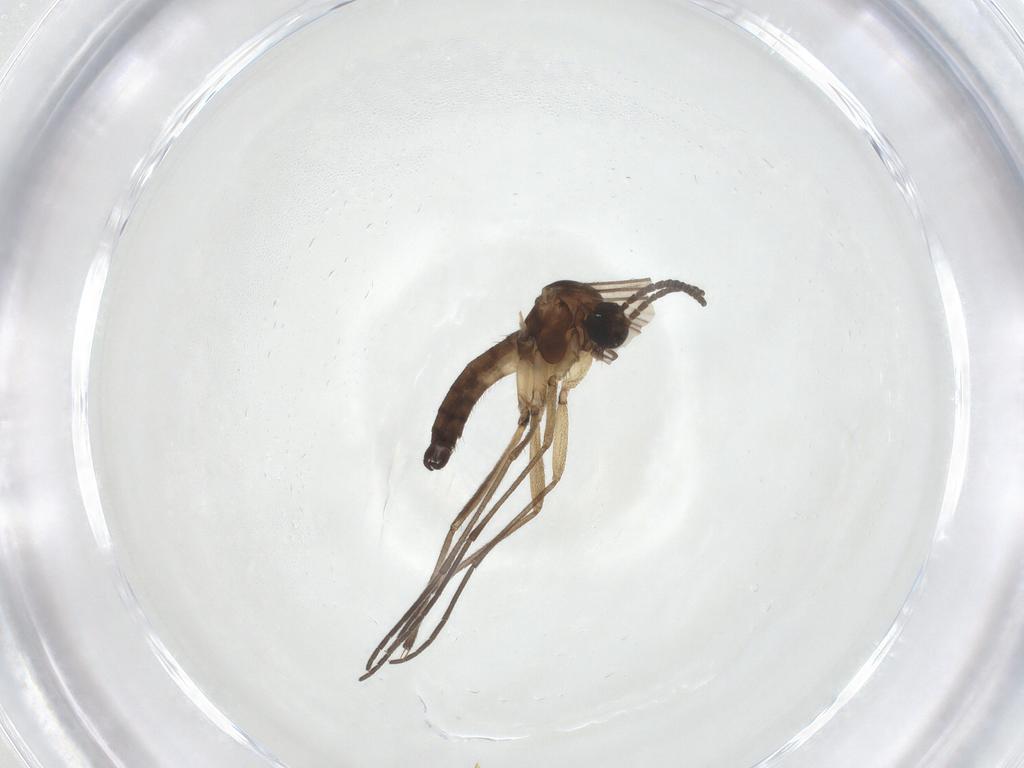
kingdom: Animalia
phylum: Arthropoda
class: Insecta
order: Diptera
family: Sciaridae
